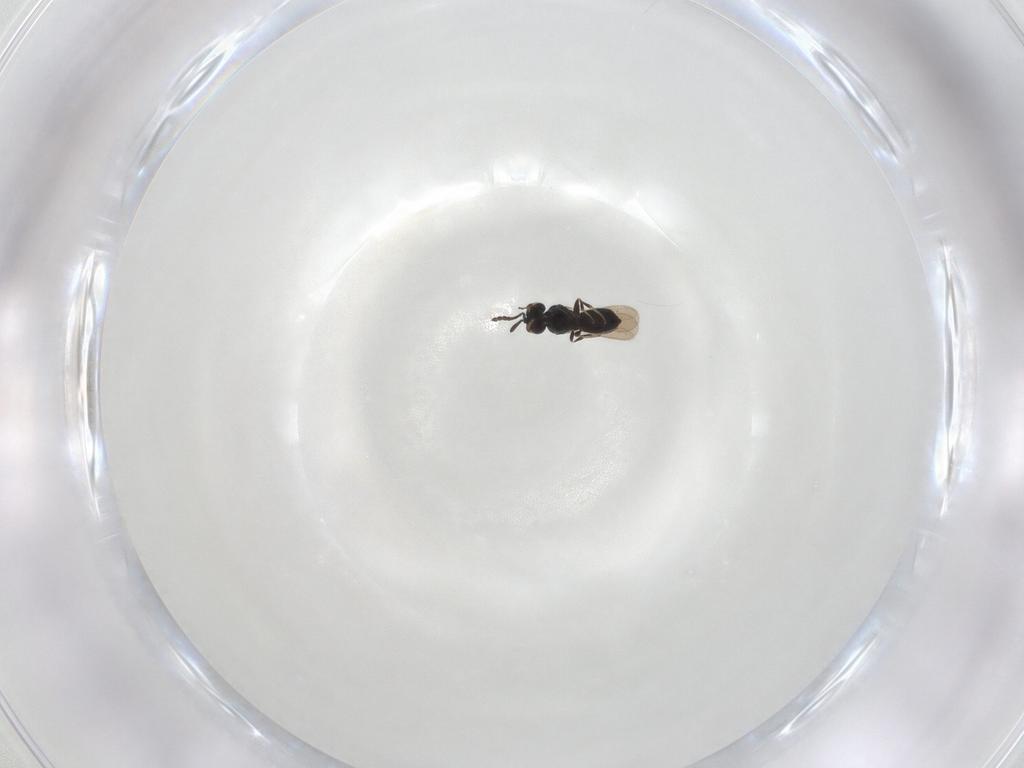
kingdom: Animalia
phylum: Arthropoda
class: Insecta
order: Hymenoptera
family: Scelionidae
